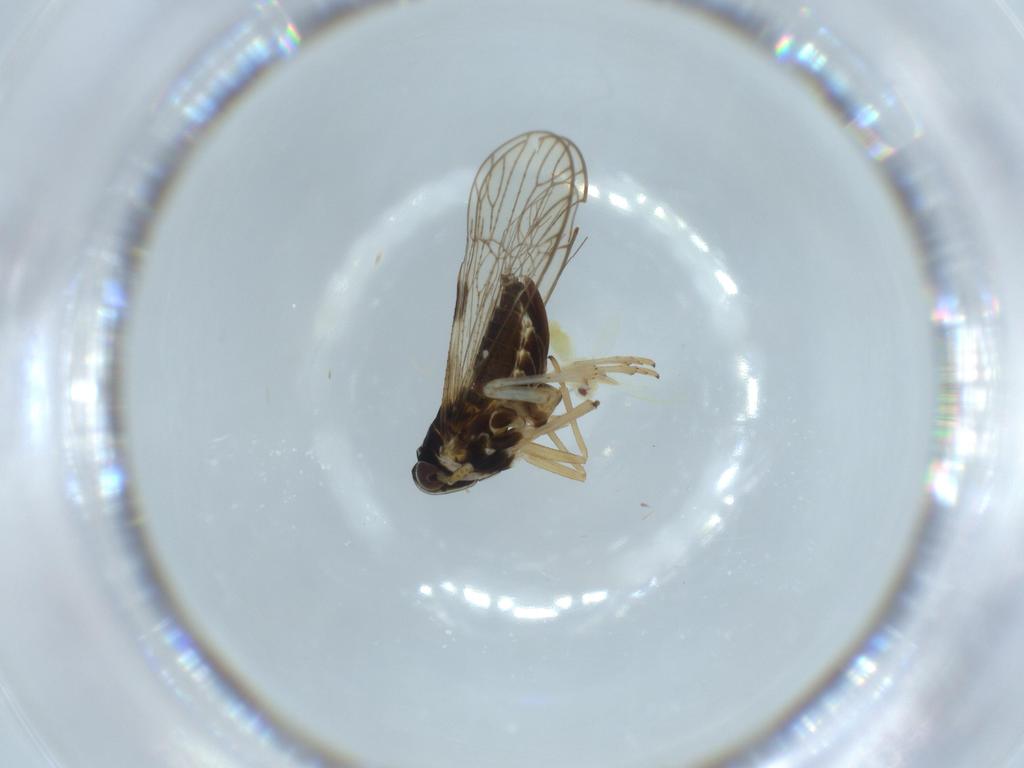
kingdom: Animalia
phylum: Arthropoda
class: Insecta
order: Hemiptera
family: Aleyrodidae
